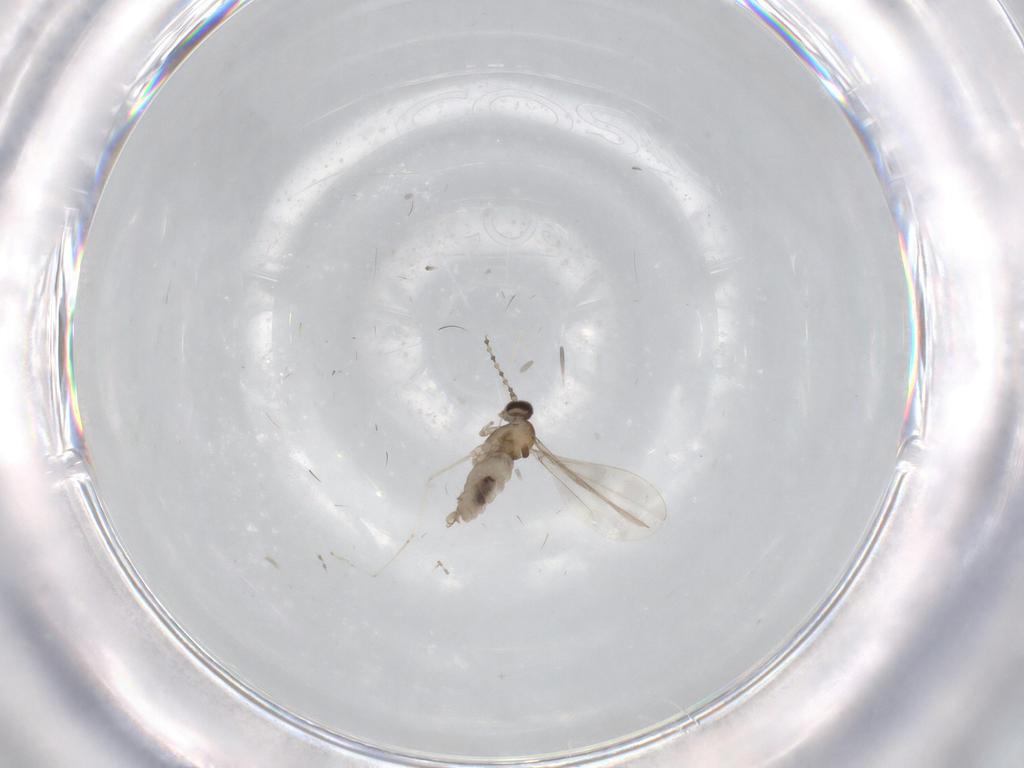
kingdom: Animalia
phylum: Arthropoda
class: Insecta
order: Diptera
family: Cecidomyiidae
